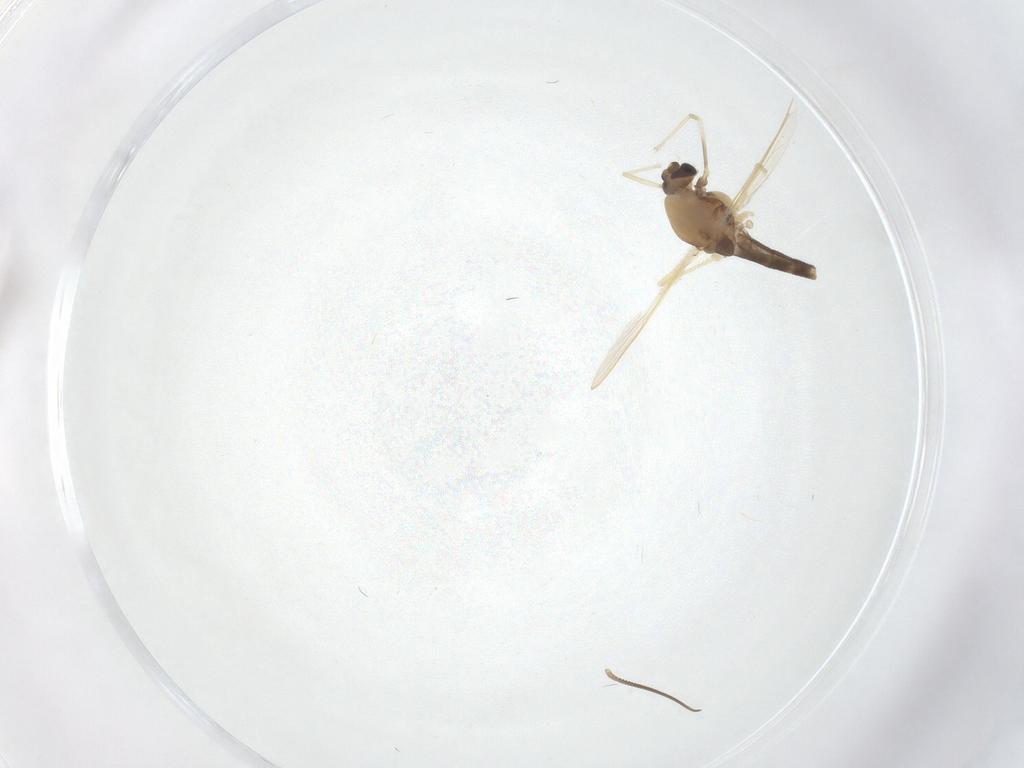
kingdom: Animalia
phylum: Arthropoda
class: Insecta
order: Diptera
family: Chironomidae
